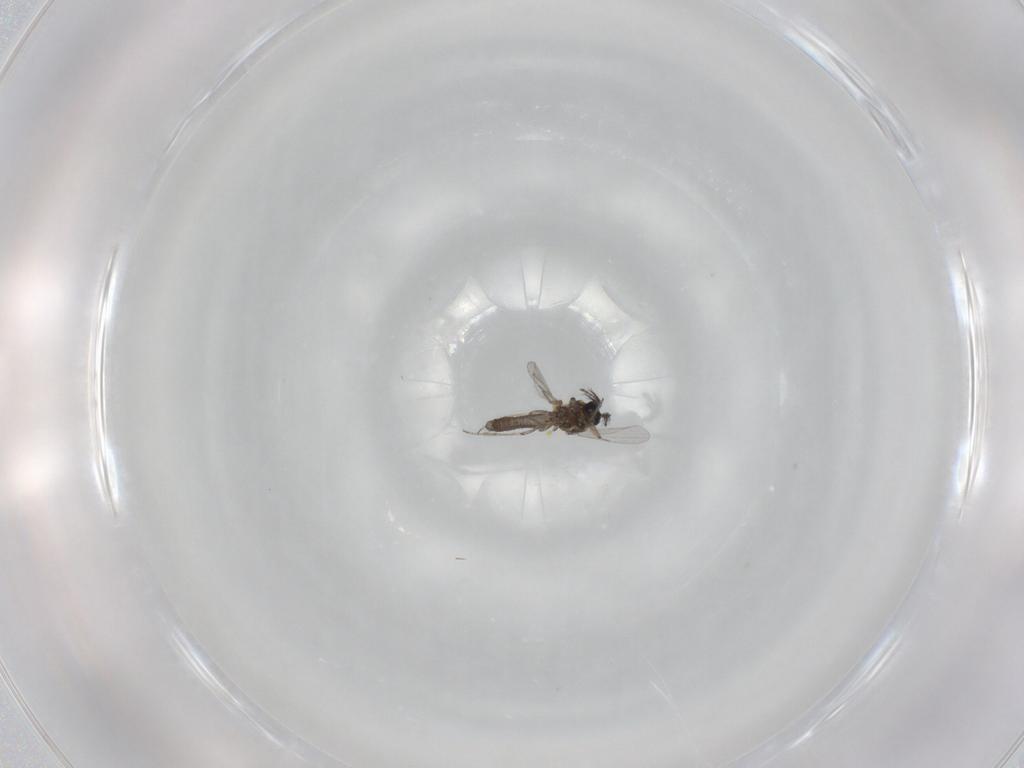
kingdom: Animalia
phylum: Arthropoda
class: Insecta
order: Diptera
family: Ceratopogonidae
